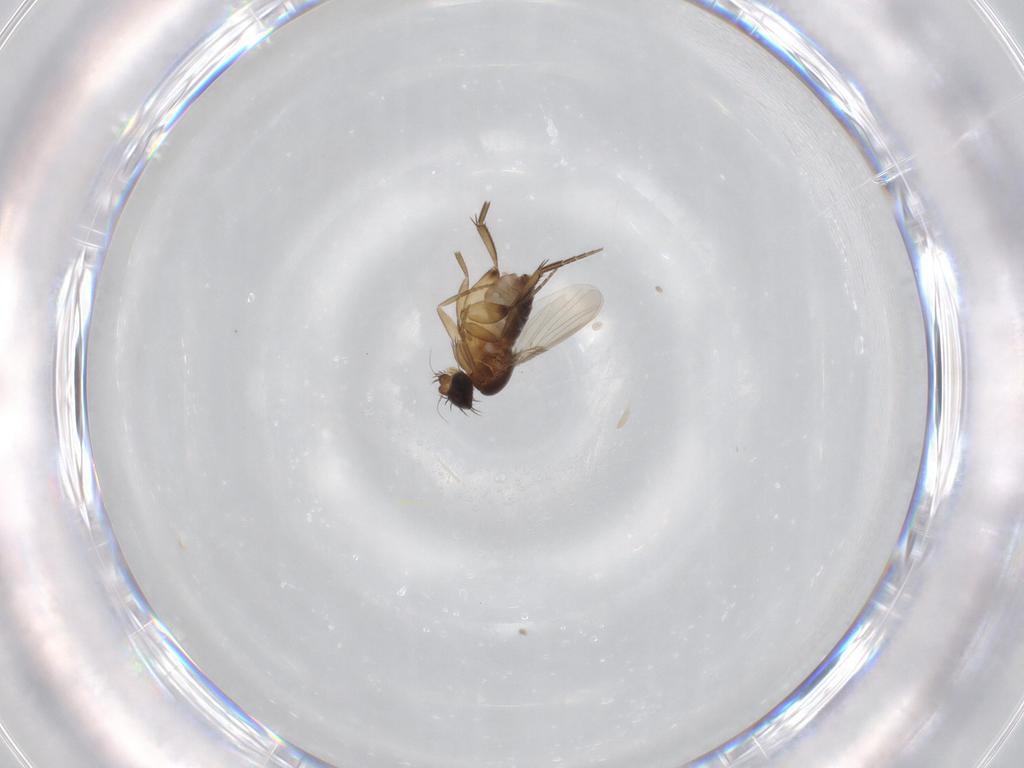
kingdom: Animalia
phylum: Arthropoda
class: Insecta
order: Diptera
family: Phoridae
